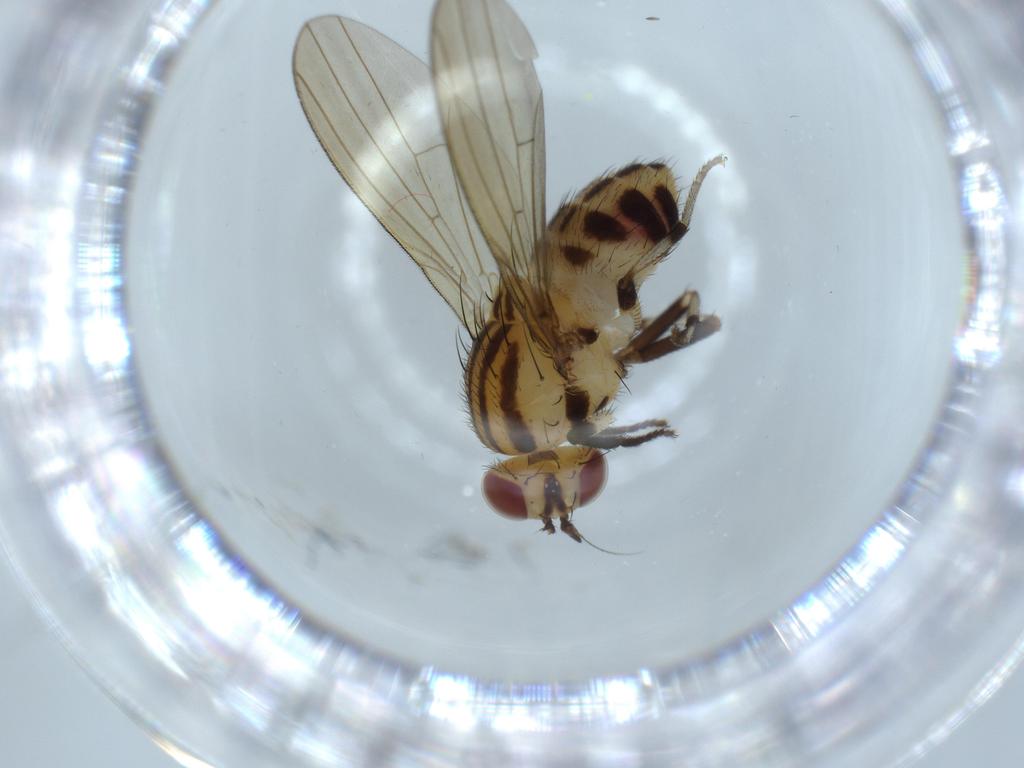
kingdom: Animalia
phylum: Arthropoda
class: Insecta
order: Diptera
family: Lauxaniidae
